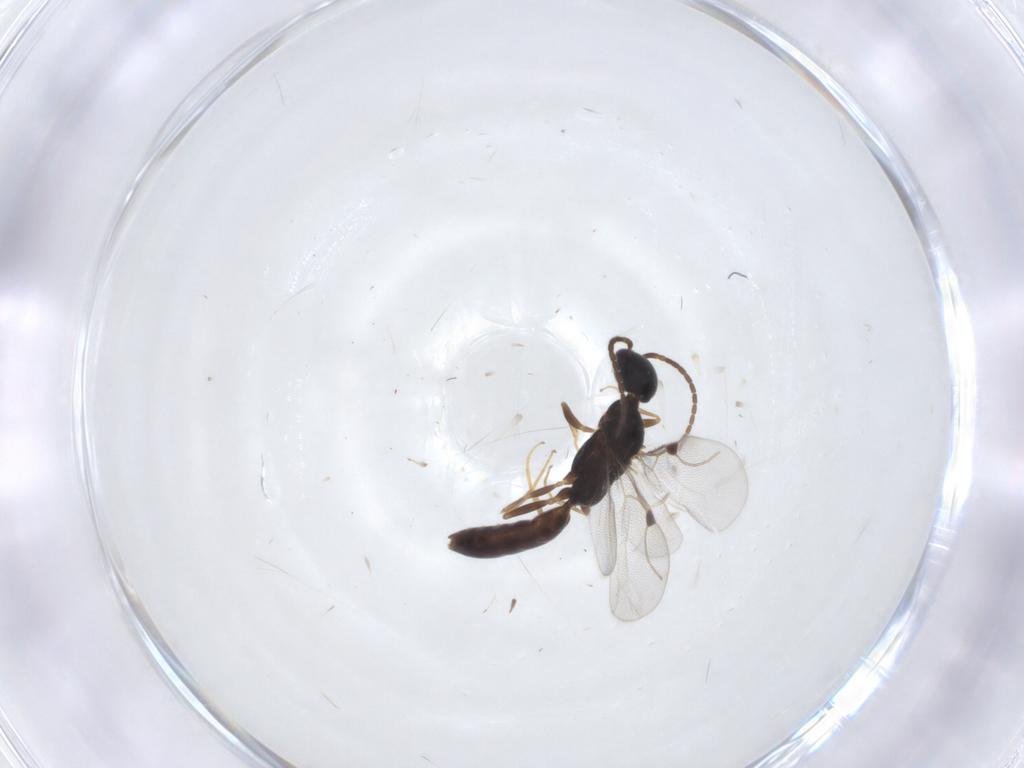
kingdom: Animalia
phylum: Arthropoda
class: Insecta
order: Hymenoptera
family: Bethylidae
